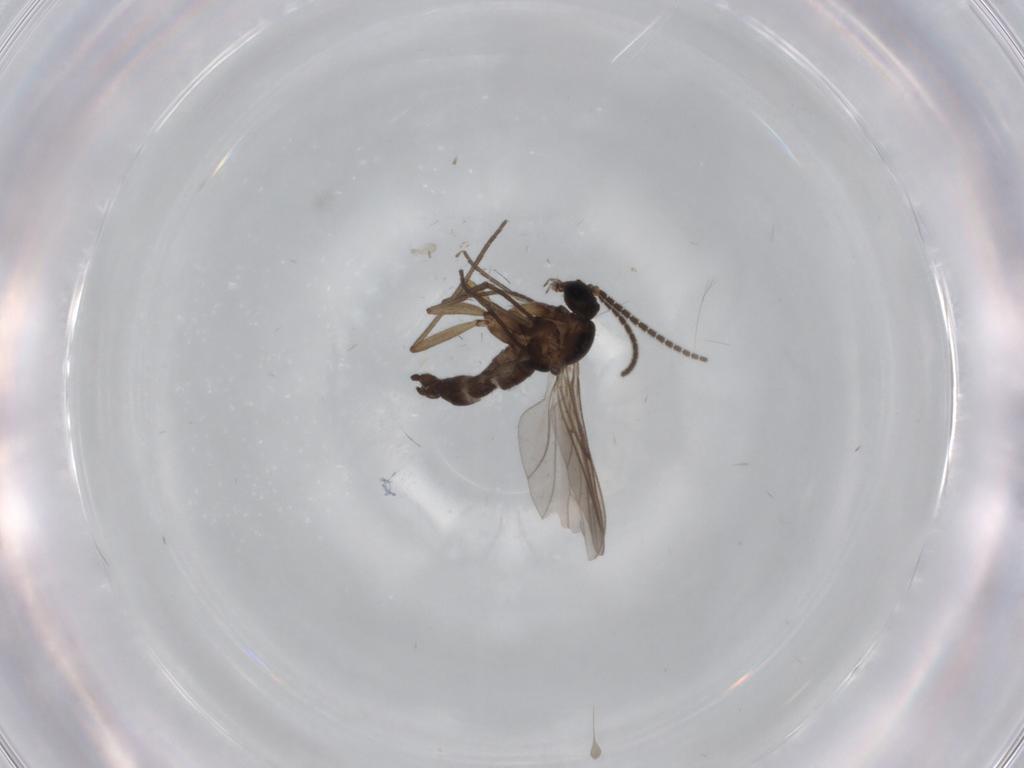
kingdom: Animalia
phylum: Arthropoda
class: Insecta
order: Diptera
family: Sciaridae
